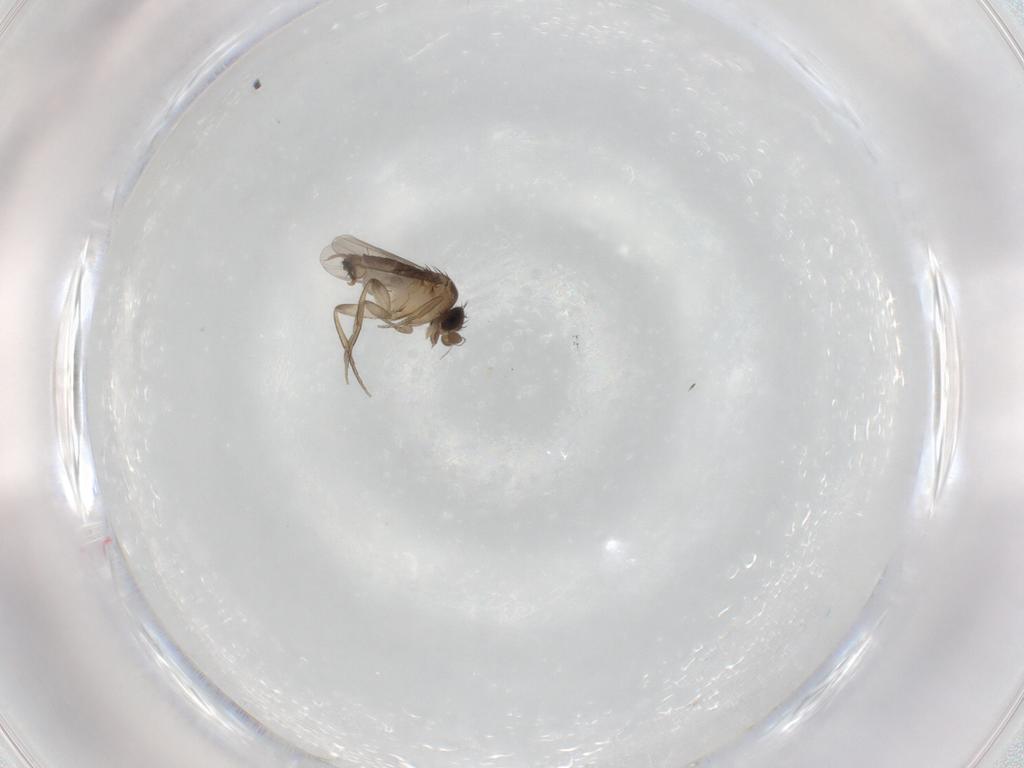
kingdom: Animalia
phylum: Arthropoda
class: Insecta
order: Diptera
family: Phoridae
